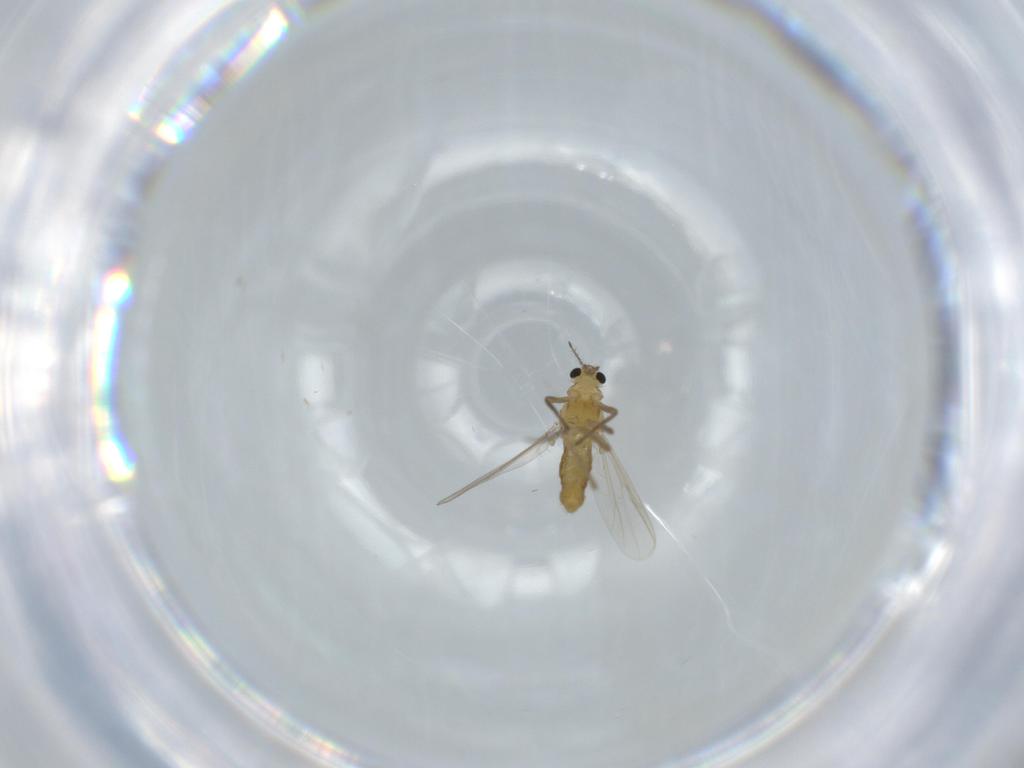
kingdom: Animalia
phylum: Arthropoda
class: Insecta
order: Diptera
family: Chironomidae
